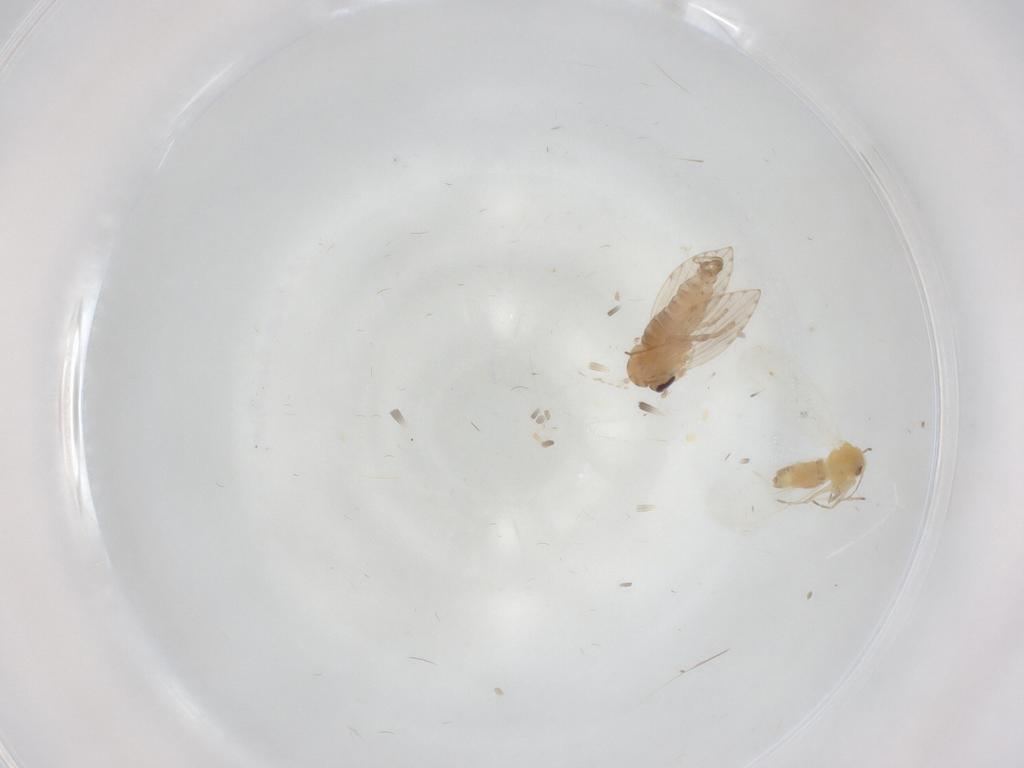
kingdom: Animalia
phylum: Arthropoda
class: Insecta
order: Diptera
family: Psychodidae
